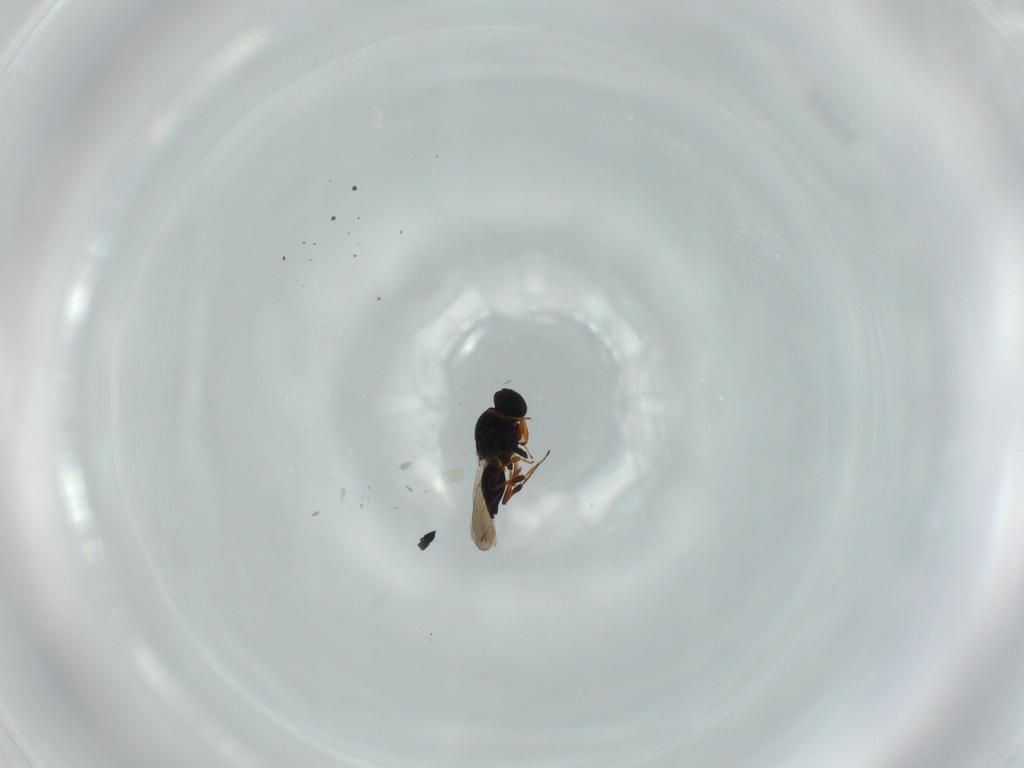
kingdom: Animalia
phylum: Arthropoda
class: Insecta
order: Hymenoptera
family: Platygastridae
